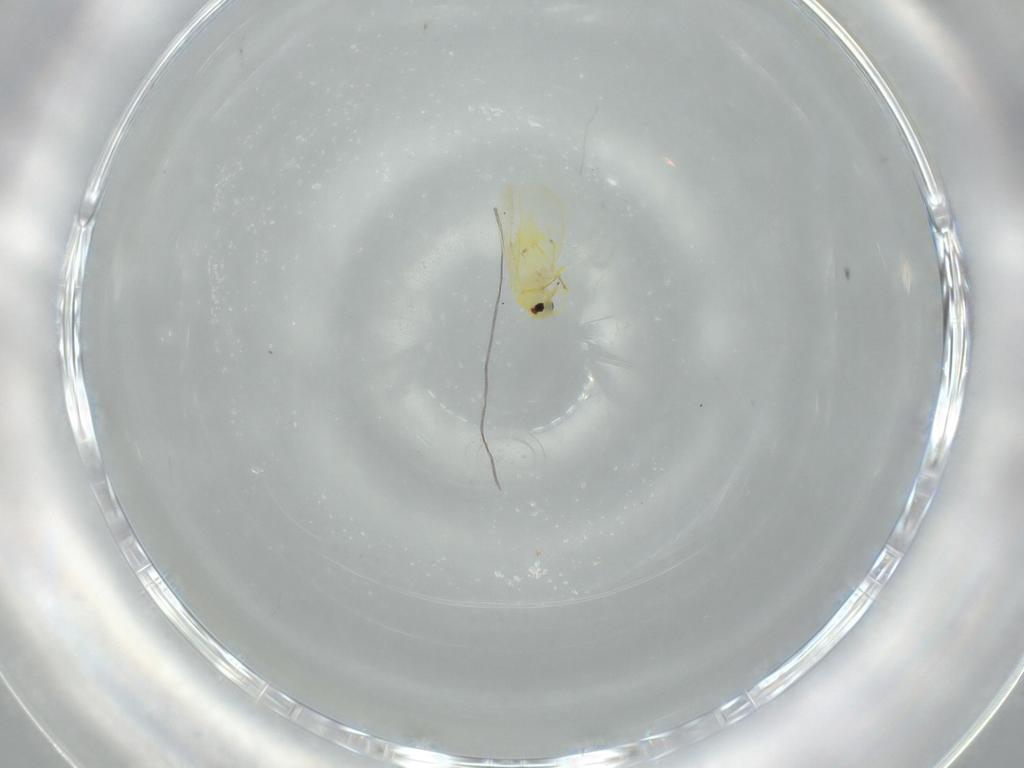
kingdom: Animalia
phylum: Arthropoda
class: Insecta
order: Hemiptera
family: Aleyrodidae
